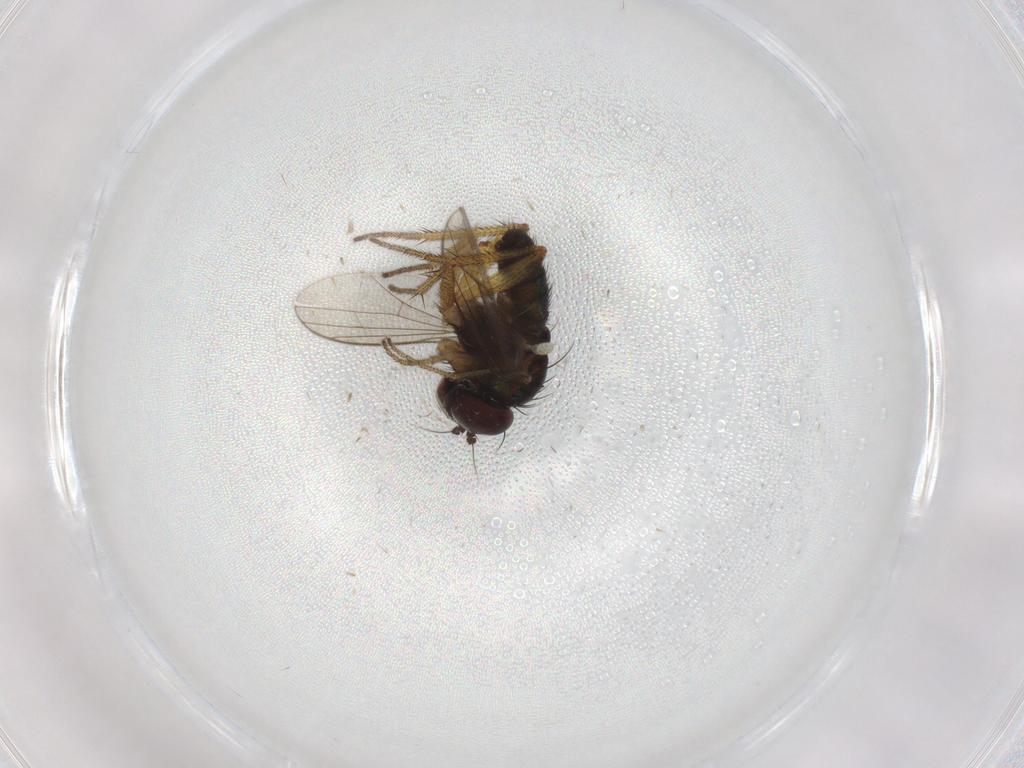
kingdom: Animalia
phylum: Arthropoda
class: Insecta
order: Diptera
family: Dolichopodidae
